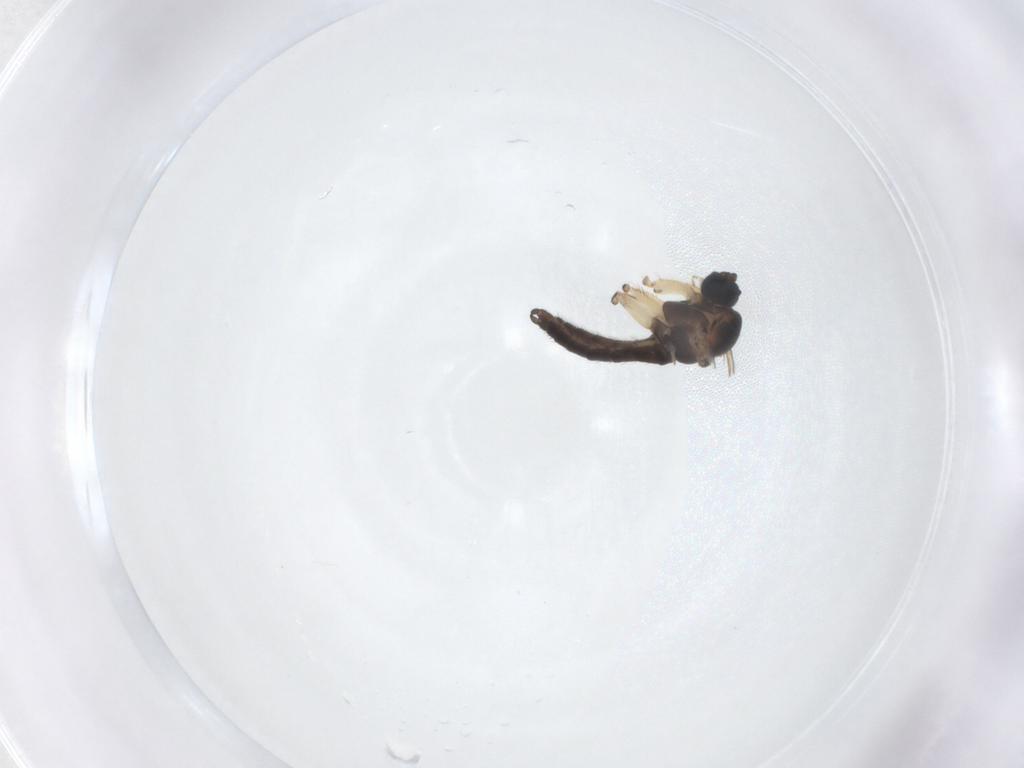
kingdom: Animalia
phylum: Arthropoda
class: Insecta
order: Diptera
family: Sciaridae
